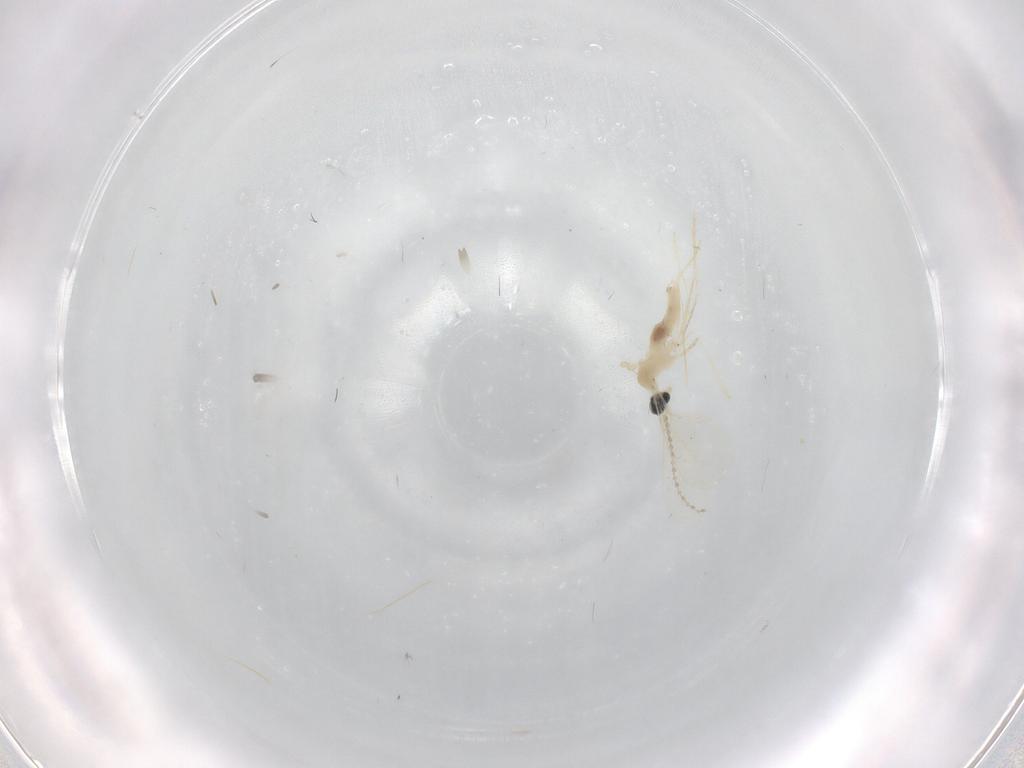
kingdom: Animalia
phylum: Arthropoda
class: Insecta
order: Diptera
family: Cecidomyiidae
